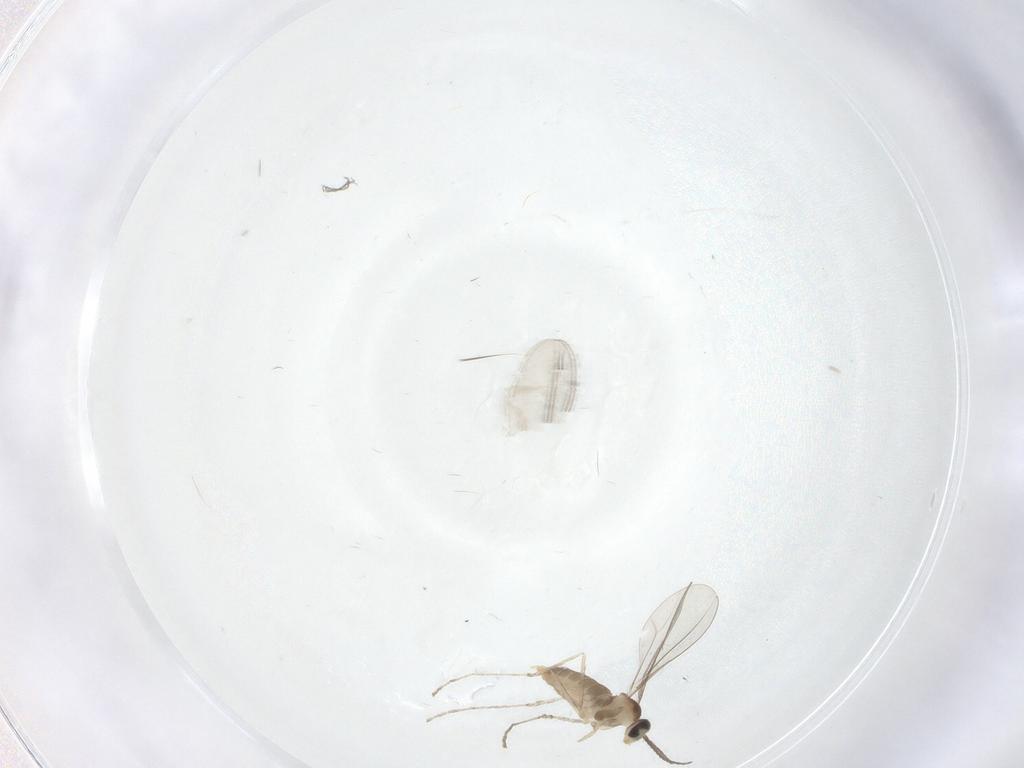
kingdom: Animalia
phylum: Arthropoda
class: Insecta
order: Diptera
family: Cecidomyiidae
